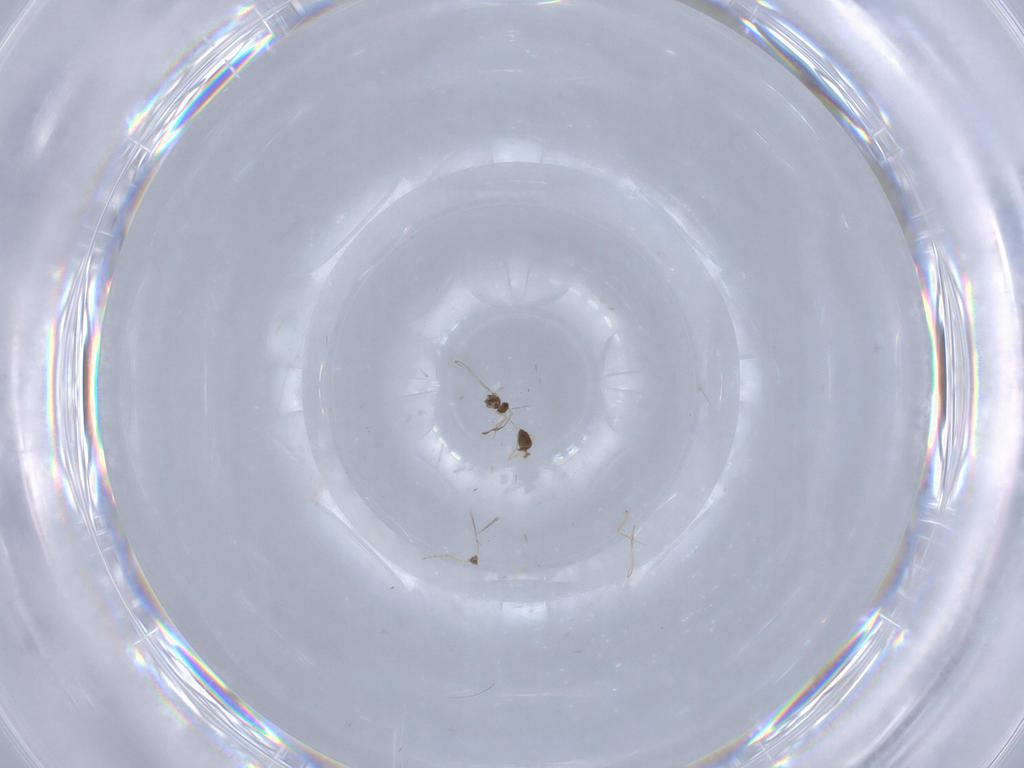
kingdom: Animalia
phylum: Arthropoda
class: Insecta
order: Hymenoptera
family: Mymaridae
